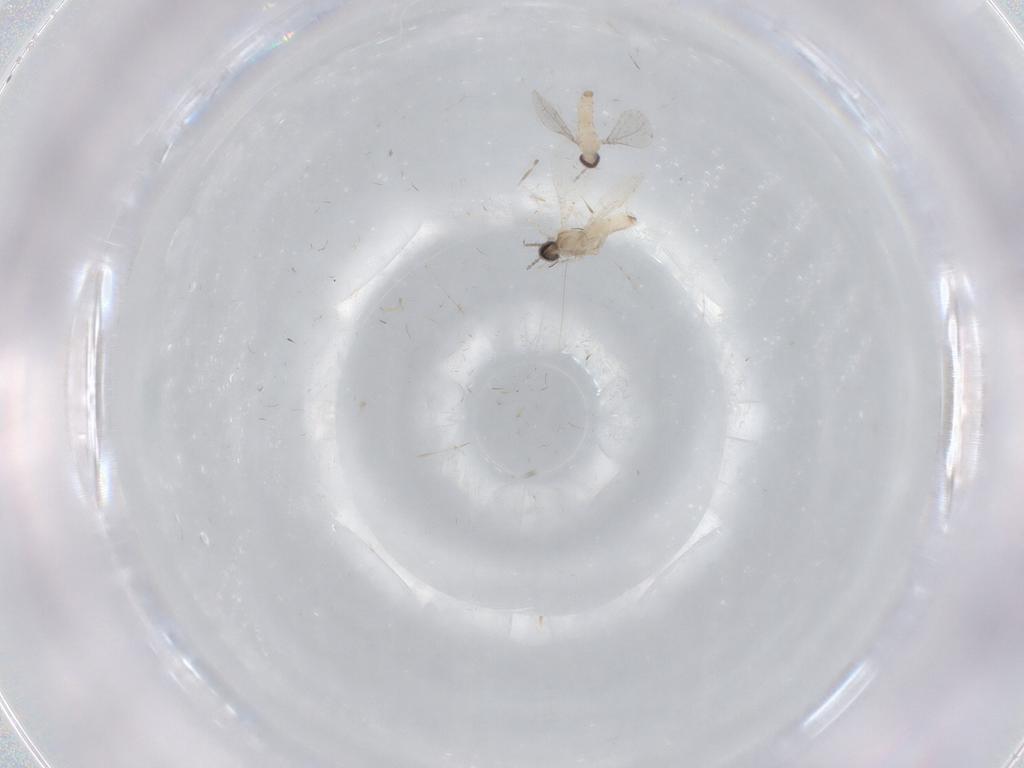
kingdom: Animalia
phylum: Arthropoda
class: Insecta
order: Diptera
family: Cecidomyiidae
